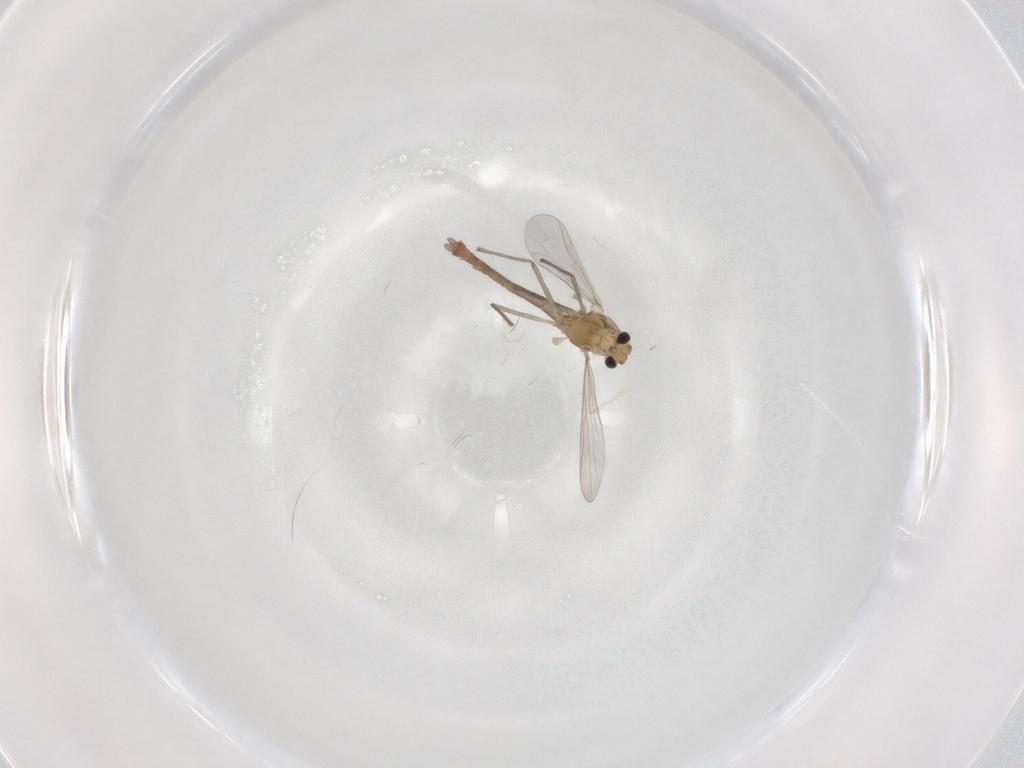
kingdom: Animalia
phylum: Arthropoda
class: Insecta
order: Diptera
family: Chironomidae
